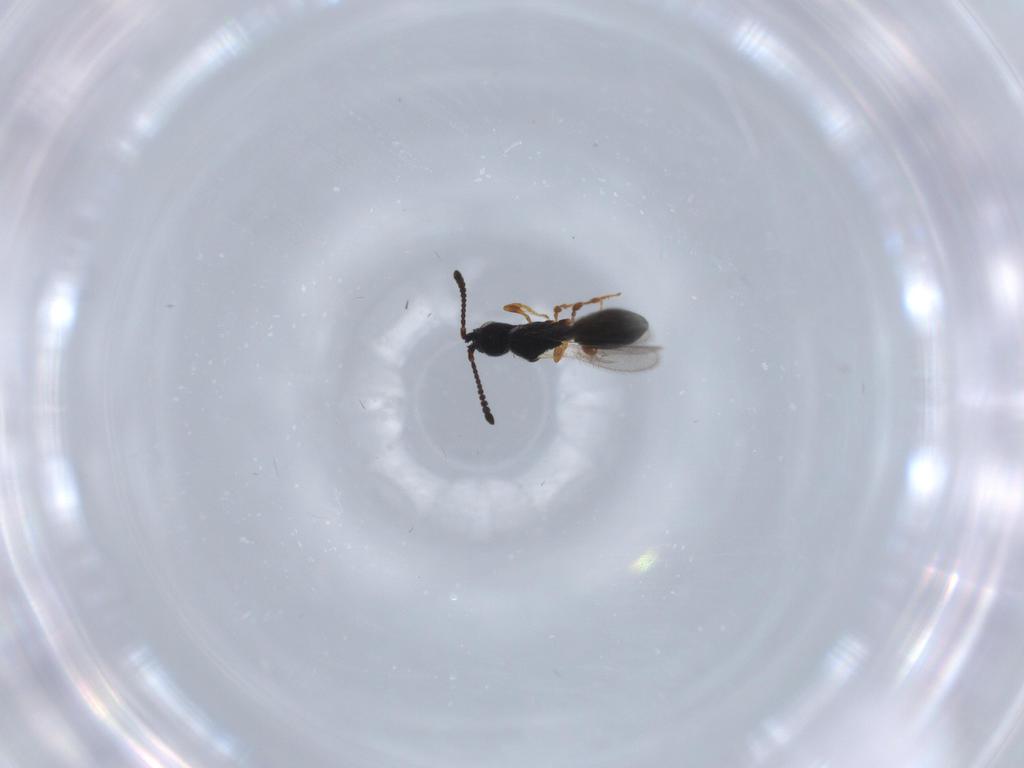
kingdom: Animalia
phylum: Arthropoda
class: Insecta
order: Hymenoptera
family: Diapriidae
